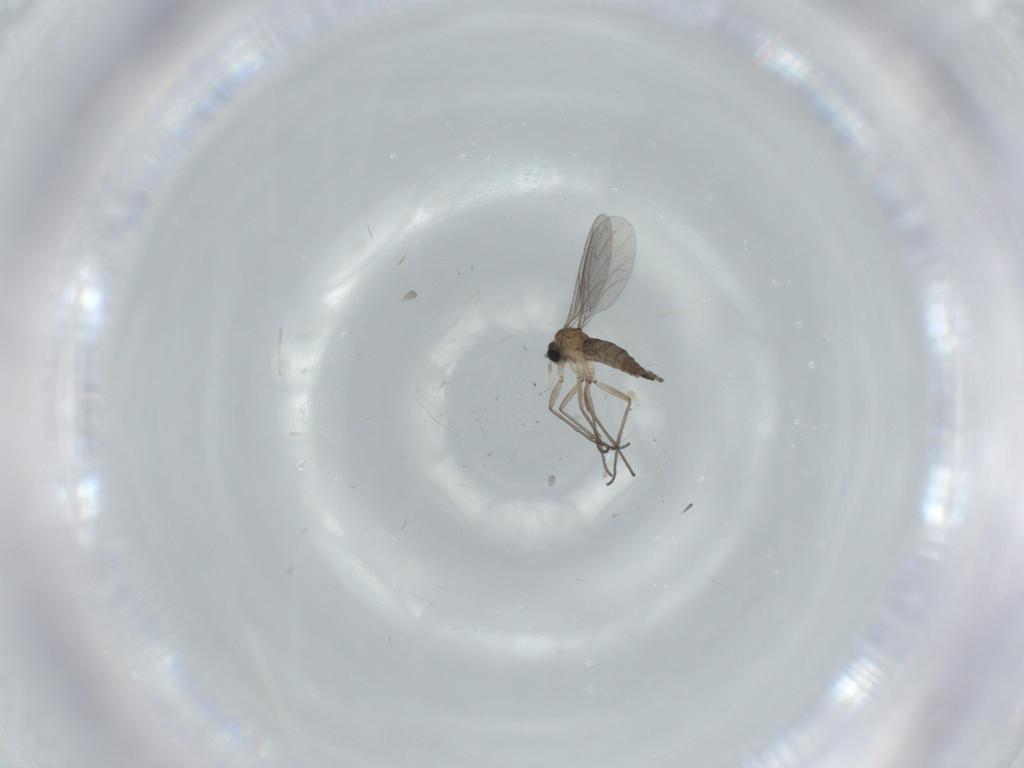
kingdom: Animalia
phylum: Arthropoda
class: Insecta
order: Diptera
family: Sciaridae
